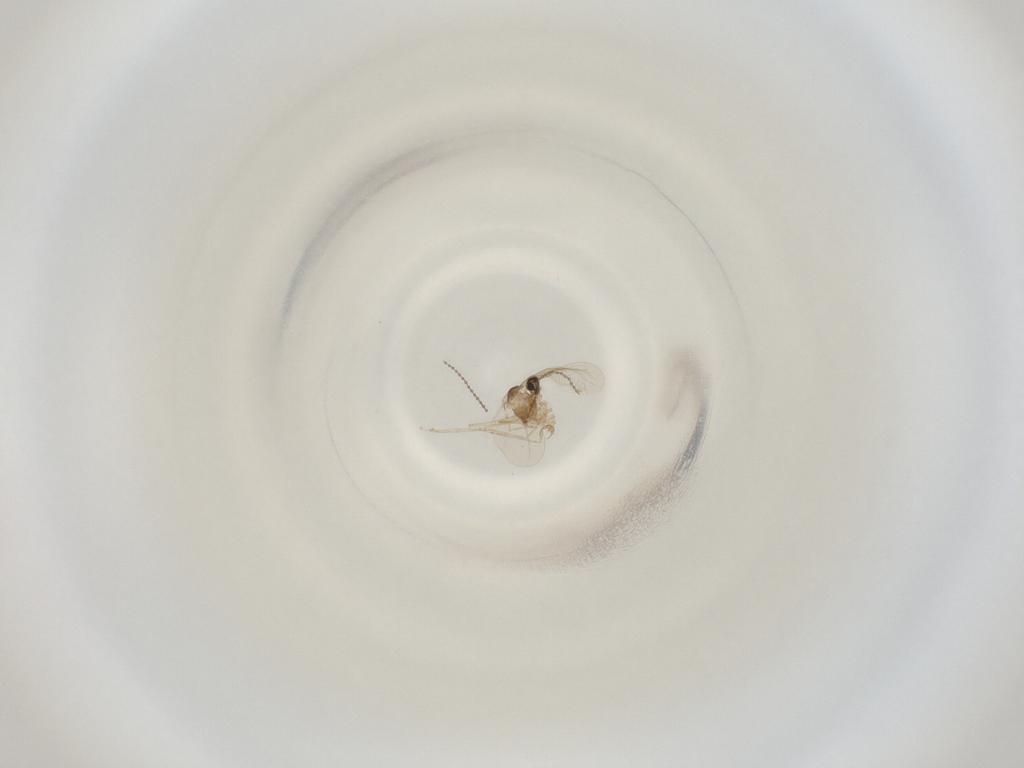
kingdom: Animalia
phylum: Arthropoda
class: Insecta
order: Diptera
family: Cecidomyiidae
